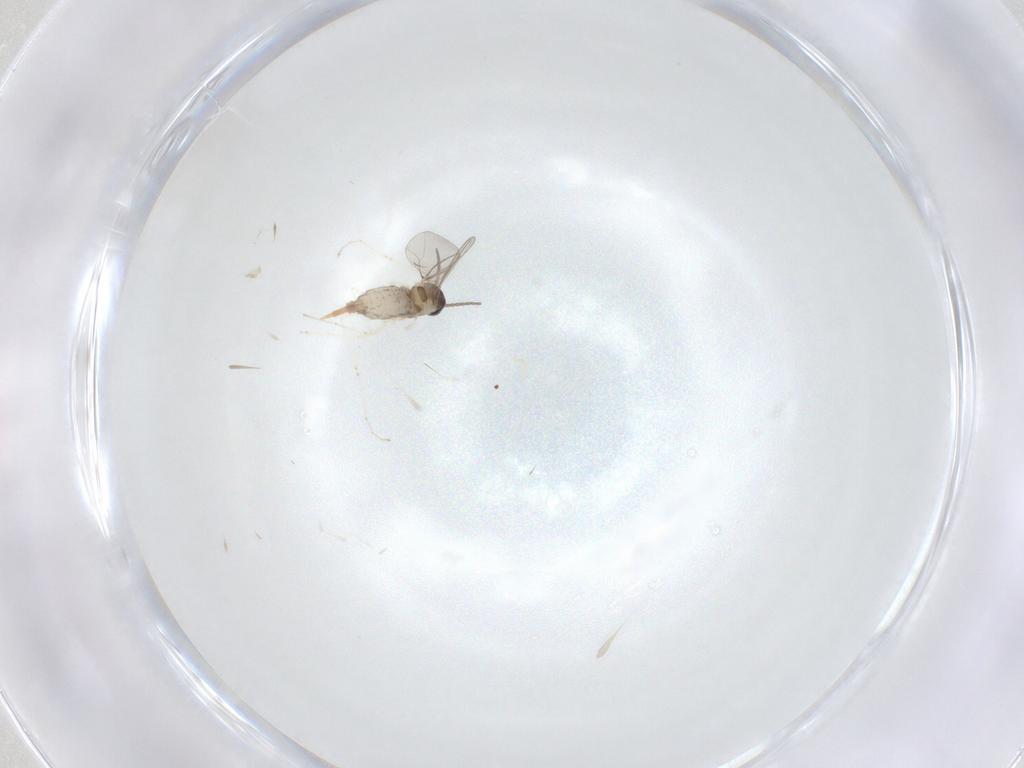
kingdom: Animalia
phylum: Arthropoda
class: Insecta
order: Diptera
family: Cecidomyiidae
